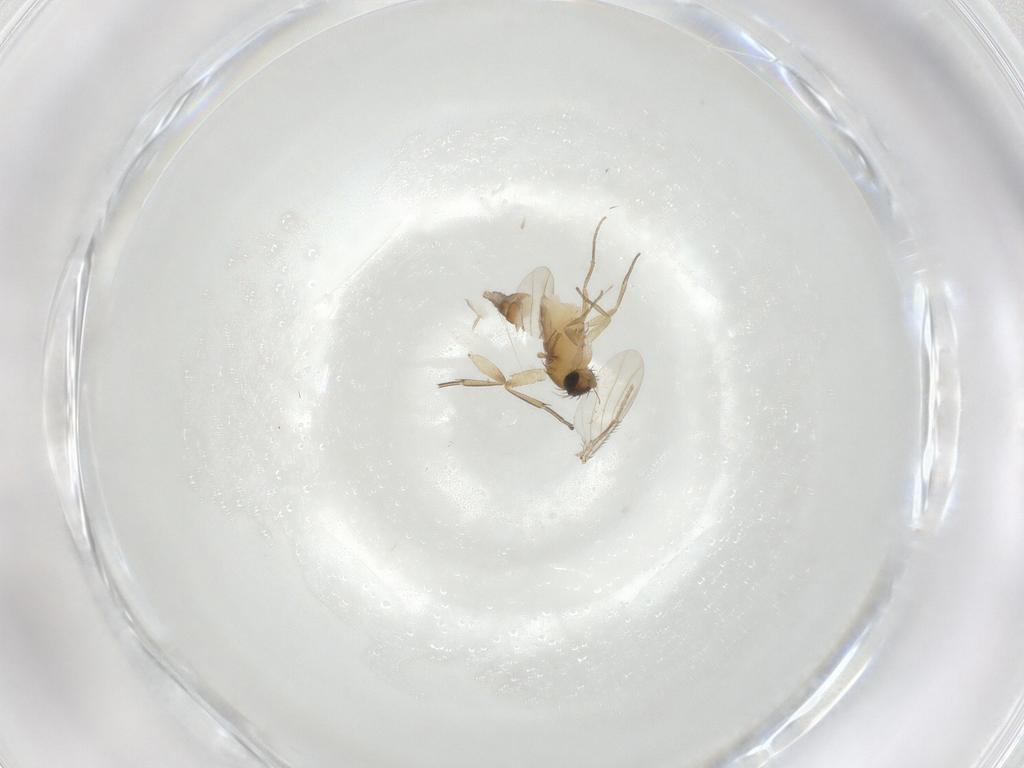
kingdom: Animalia
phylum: Arthropoda
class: Insecta
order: Diptera
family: Phoridae
